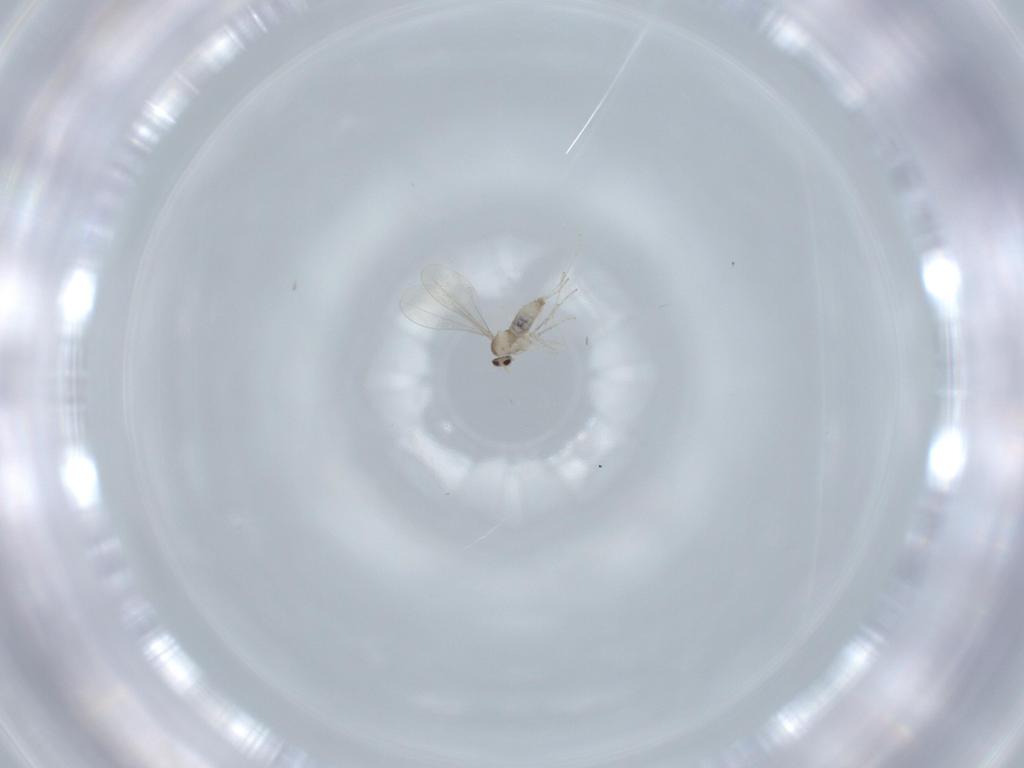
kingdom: Animalia
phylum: Arthropoda
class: Insecta
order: Diptera
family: Cecidomyiidae
